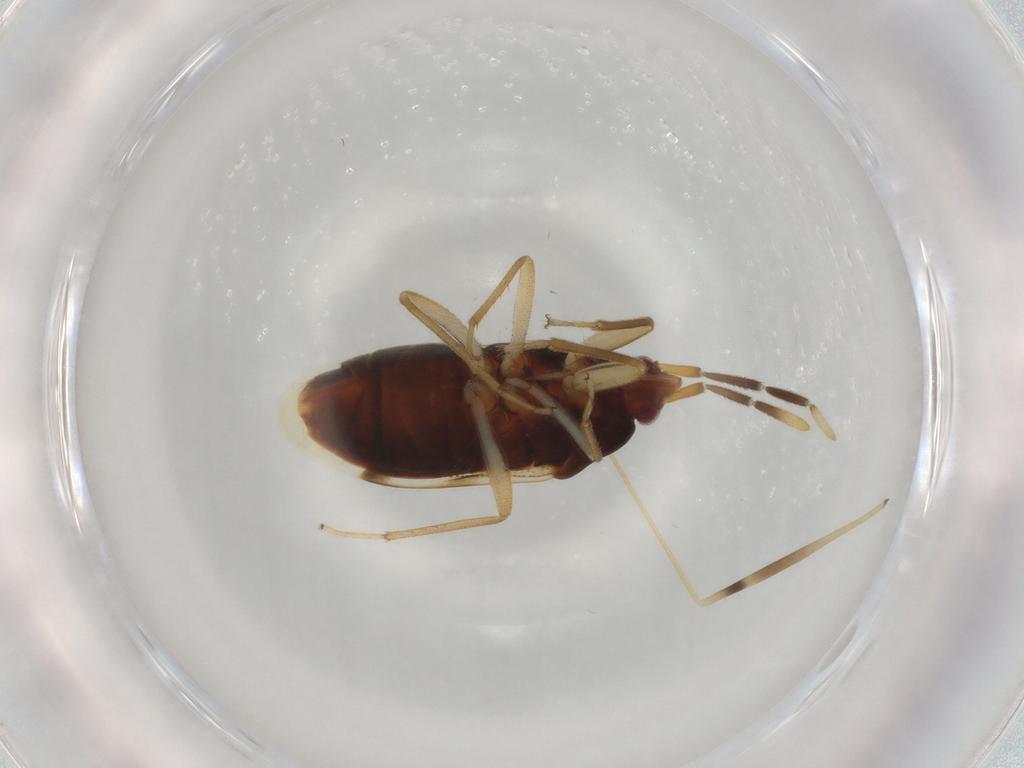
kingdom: Animalia
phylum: Arthropoda
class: Insecta
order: Hemiptera
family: Rhyparochromidae
